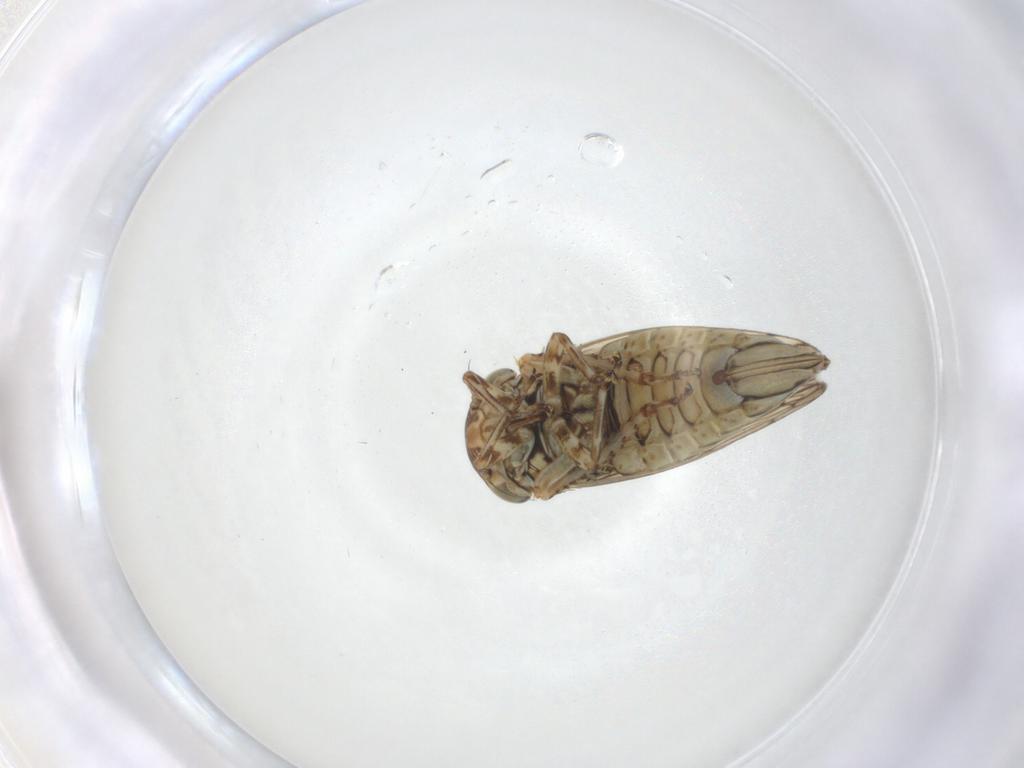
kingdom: Animalia
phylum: Arthropoda
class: Insecta
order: Hemiptera
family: Cicadellidae
